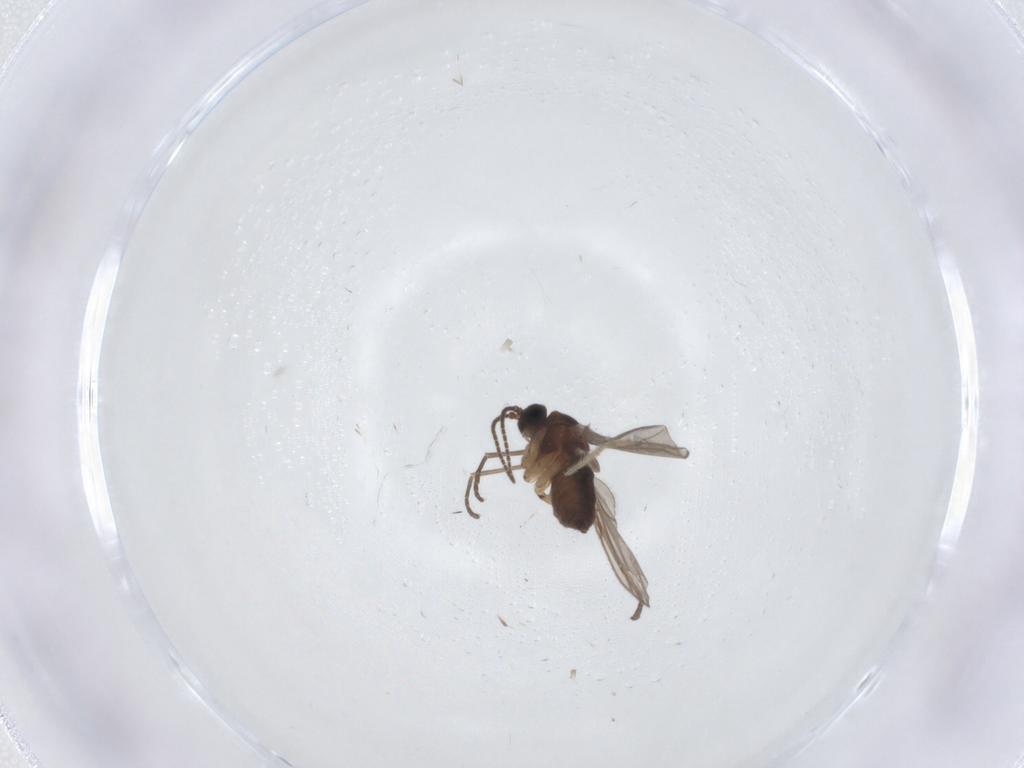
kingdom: Animalia
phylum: Arthropoda
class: Insecta
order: Diptera
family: Sciaridae
